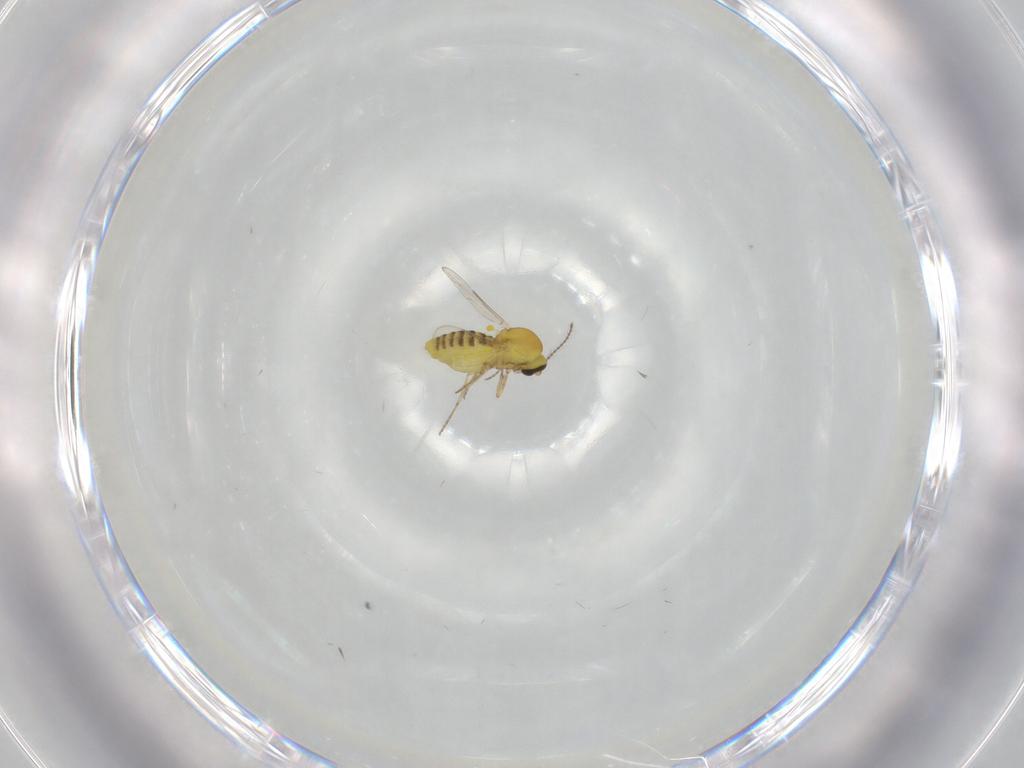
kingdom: Animalia
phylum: Arthropoda
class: Insecta
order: Diptera
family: Ceratopogonidae
